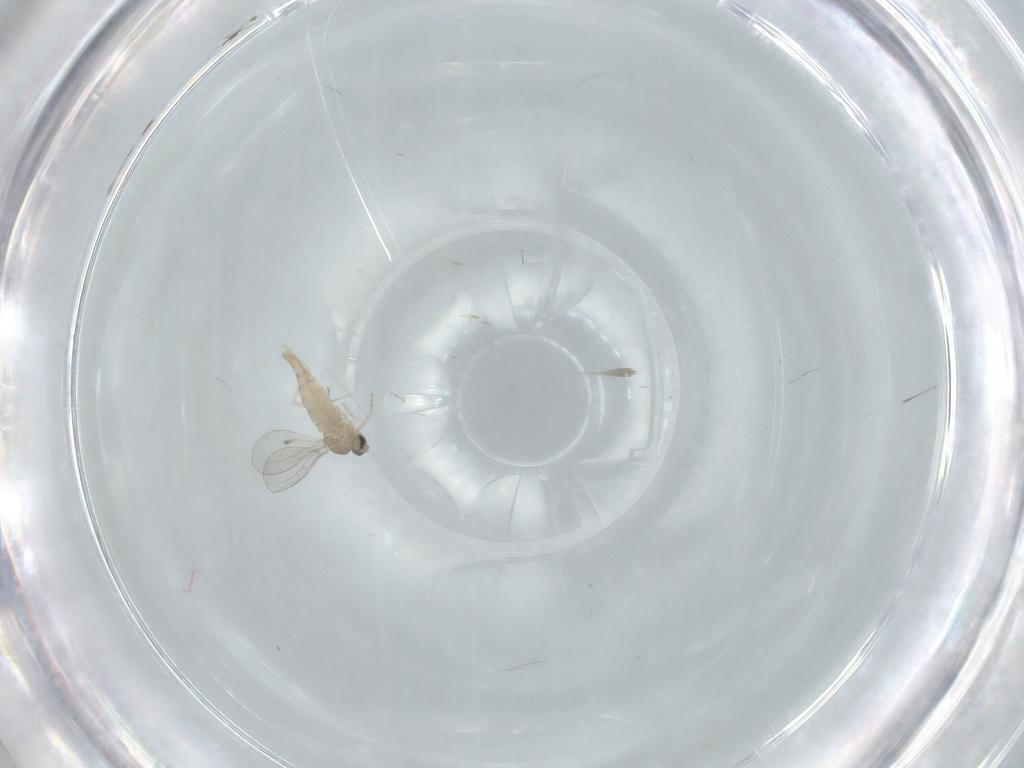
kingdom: Animalia
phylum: Arthropoda
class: Insecta
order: Diptera
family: Cecidomyiidae
